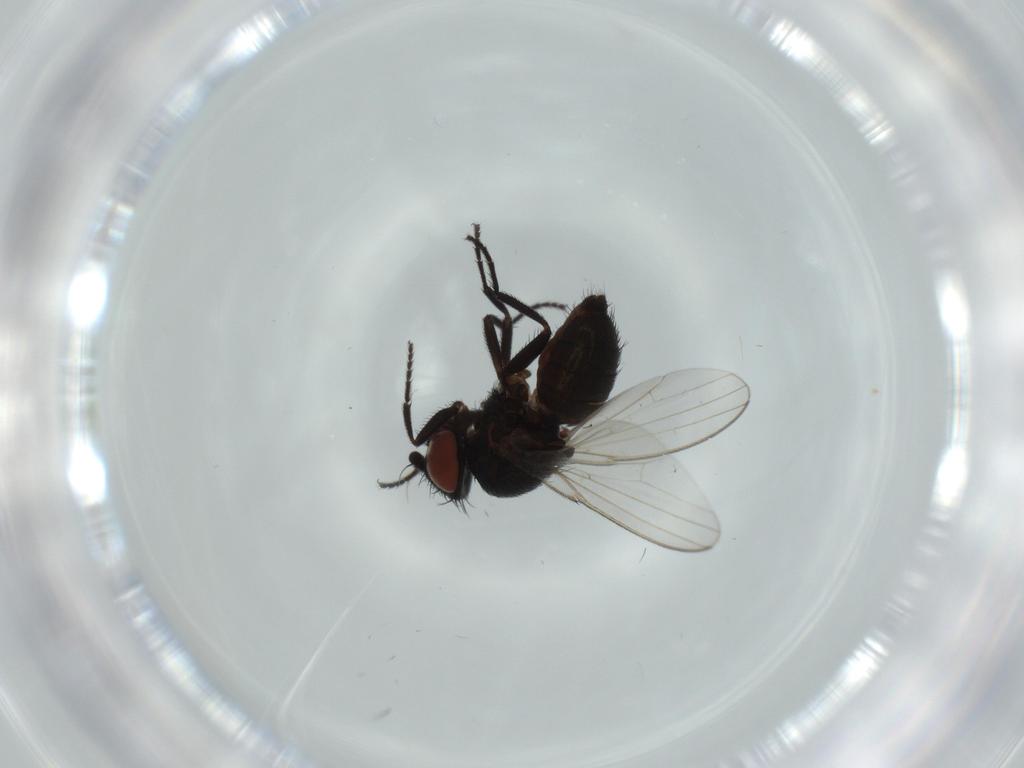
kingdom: Animalia
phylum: Arthropoda
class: Insecta
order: Diptera
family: Milichiidae
